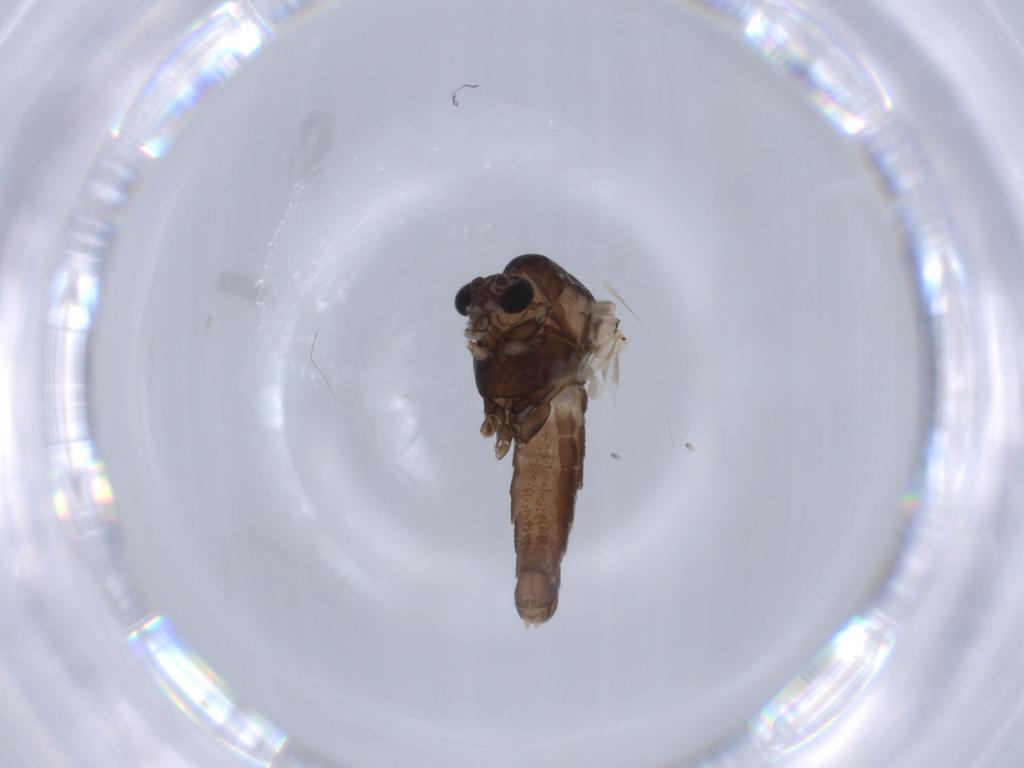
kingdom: Animalia
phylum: Arthropoda
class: Insecta
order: Diptera
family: Chironomidae
